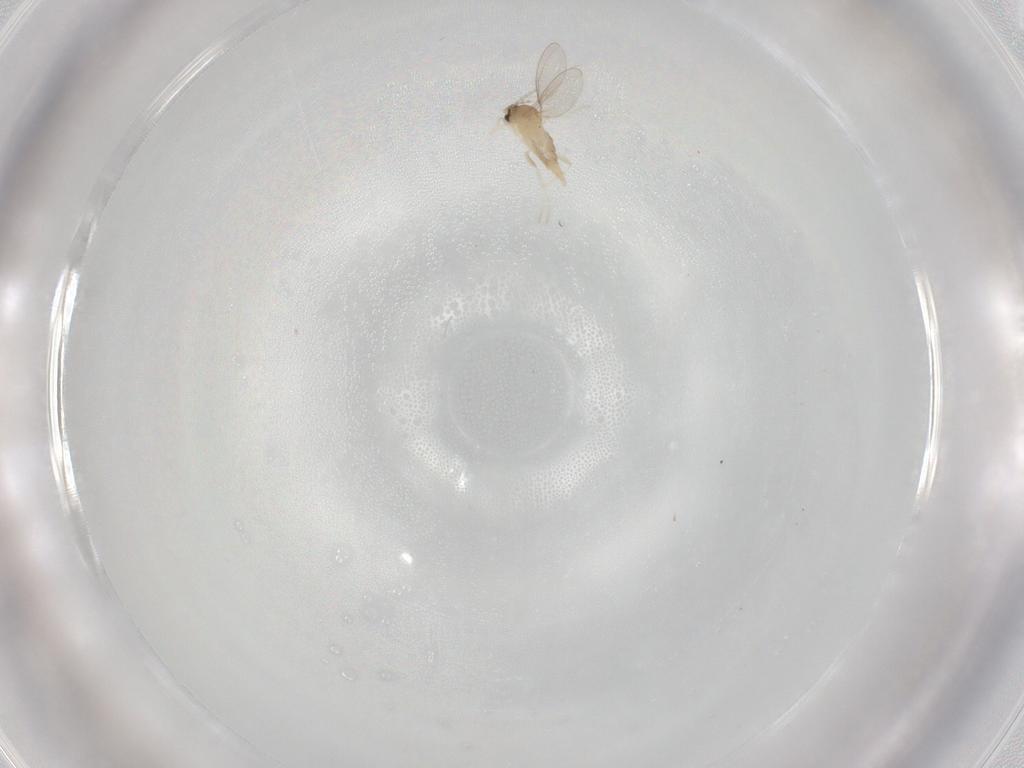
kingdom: Animalia
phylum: Arthropoda
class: Insecta
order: Diptera
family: Cecidomyiidae
